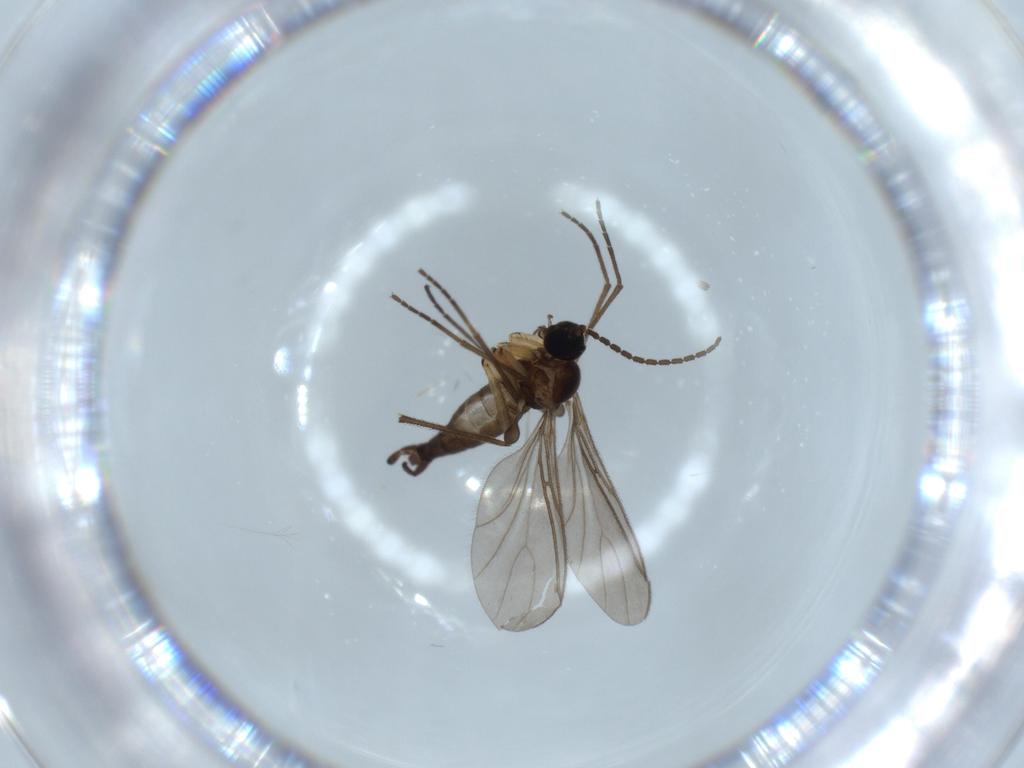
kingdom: Animalia
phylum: Arthropoda
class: Insecta
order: Diptera
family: Sciaridae
